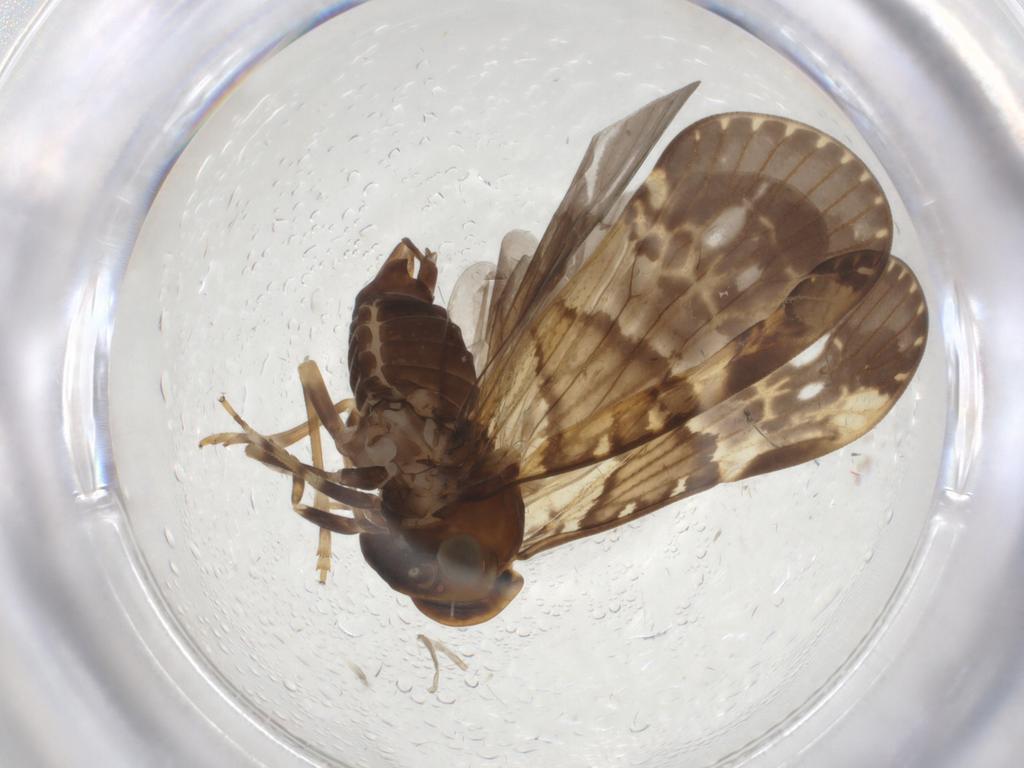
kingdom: Animalia
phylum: Arthropoda
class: Insecta
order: Hemiptera
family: Cixiidae
